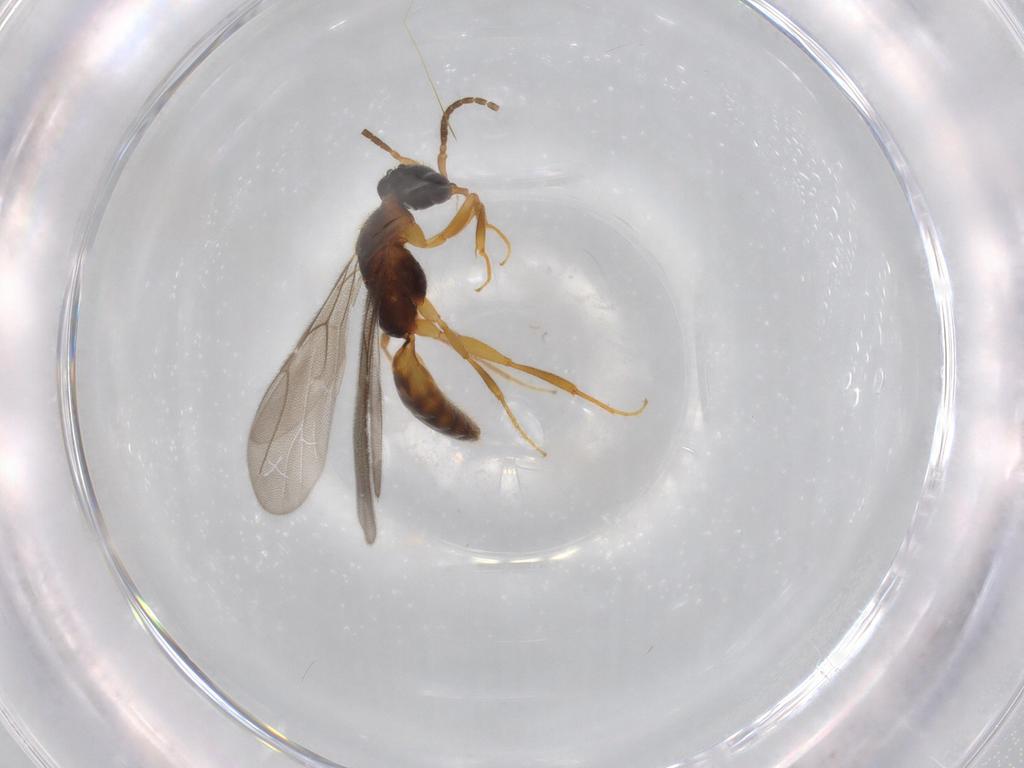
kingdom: Animalia
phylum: Arthropoda
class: Insecta
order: Hymenoptera
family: Bethylidae
